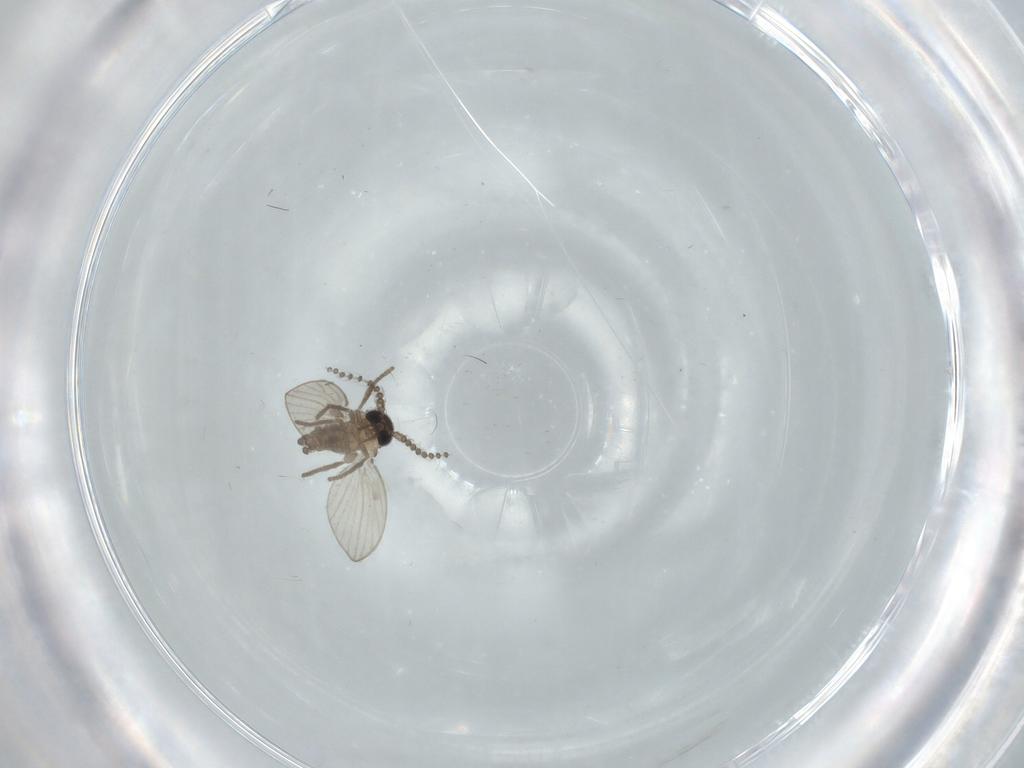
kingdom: Animalia
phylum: Arthropoda
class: Insecta
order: Diptera
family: Psychodidae
